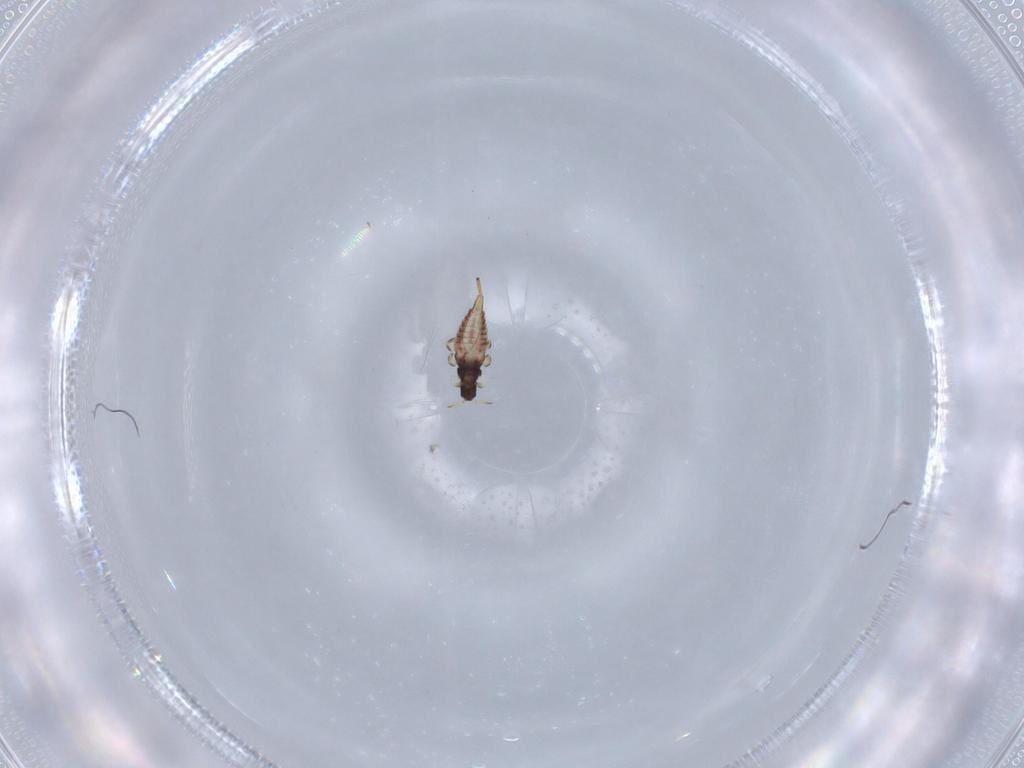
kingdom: Animalia
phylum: Arthropoda
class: Insecta
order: Thysanoptera
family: Phlaeothripidae
